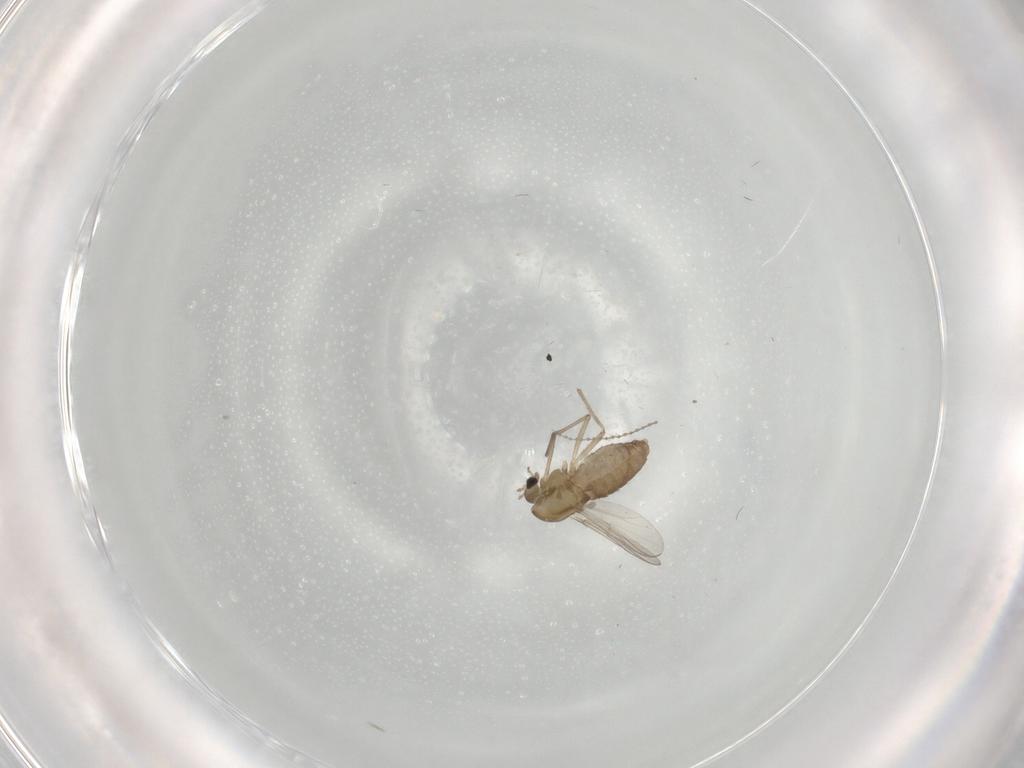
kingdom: Animalia
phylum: Arthropoda
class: Insecta
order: Diptera
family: Chironomidae
